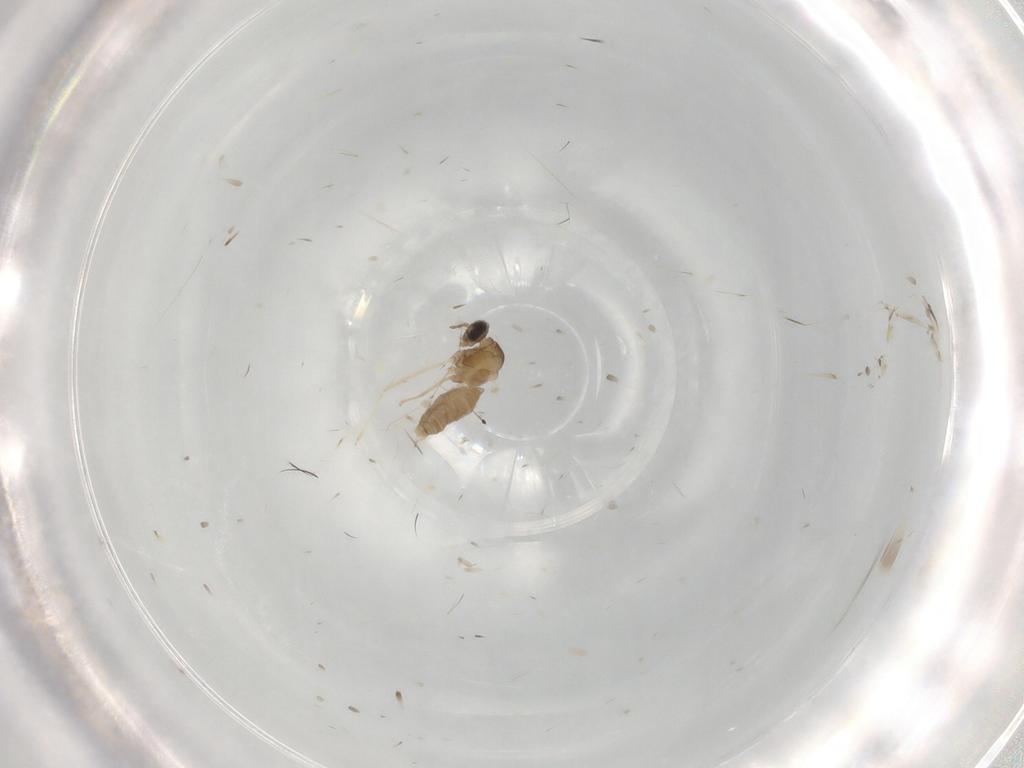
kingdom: Animalia
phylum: Arthropoda
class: Insecta
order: Diptera
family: Cecidomyiidae
